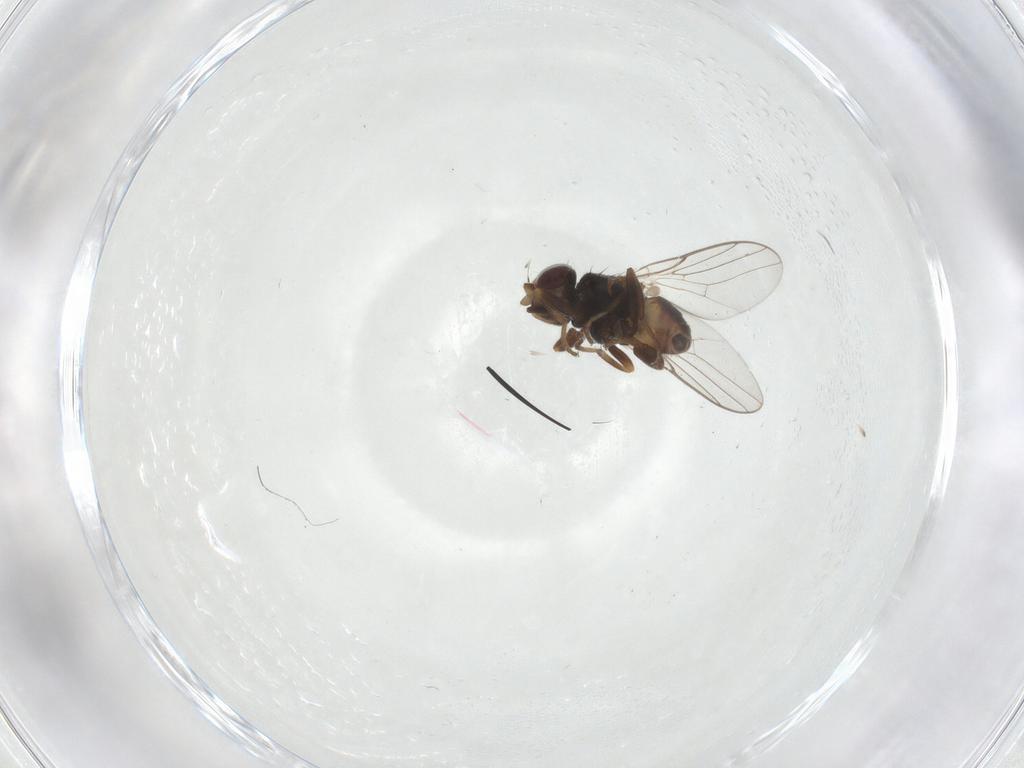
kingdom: Animalia
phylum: Arthropoda
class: Insecta
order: Diptera
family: Chloropidae
